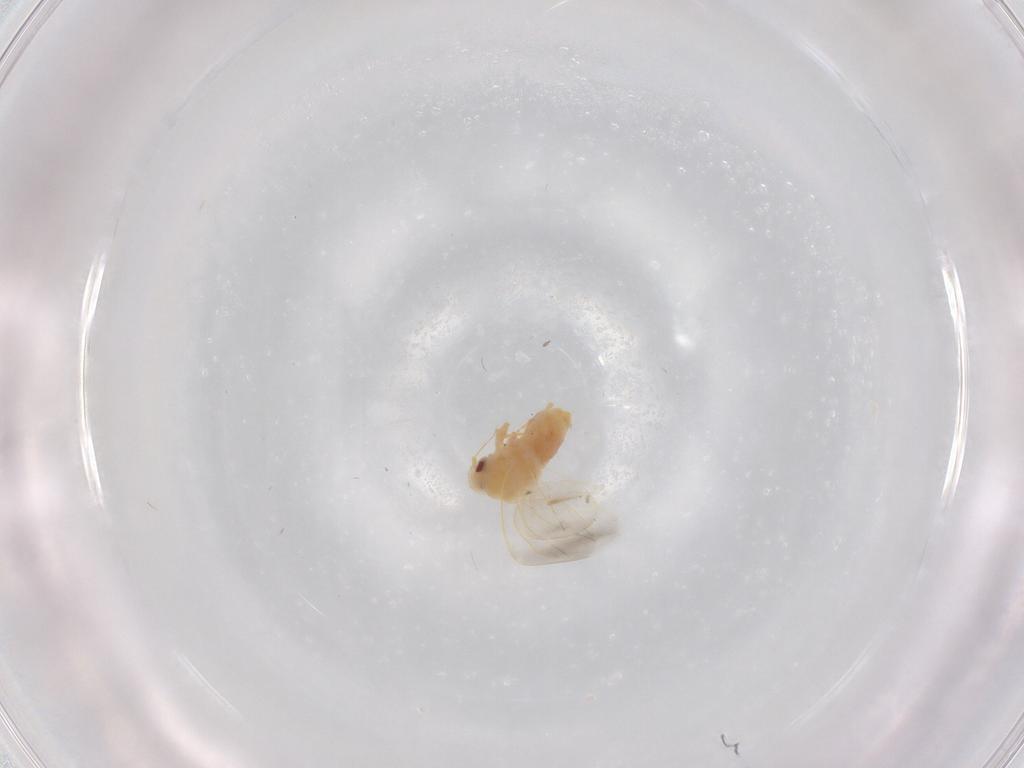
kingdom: Animalia
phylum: Arthropoda
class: Insecta
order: Hemiptera
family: Aleyrodidae
